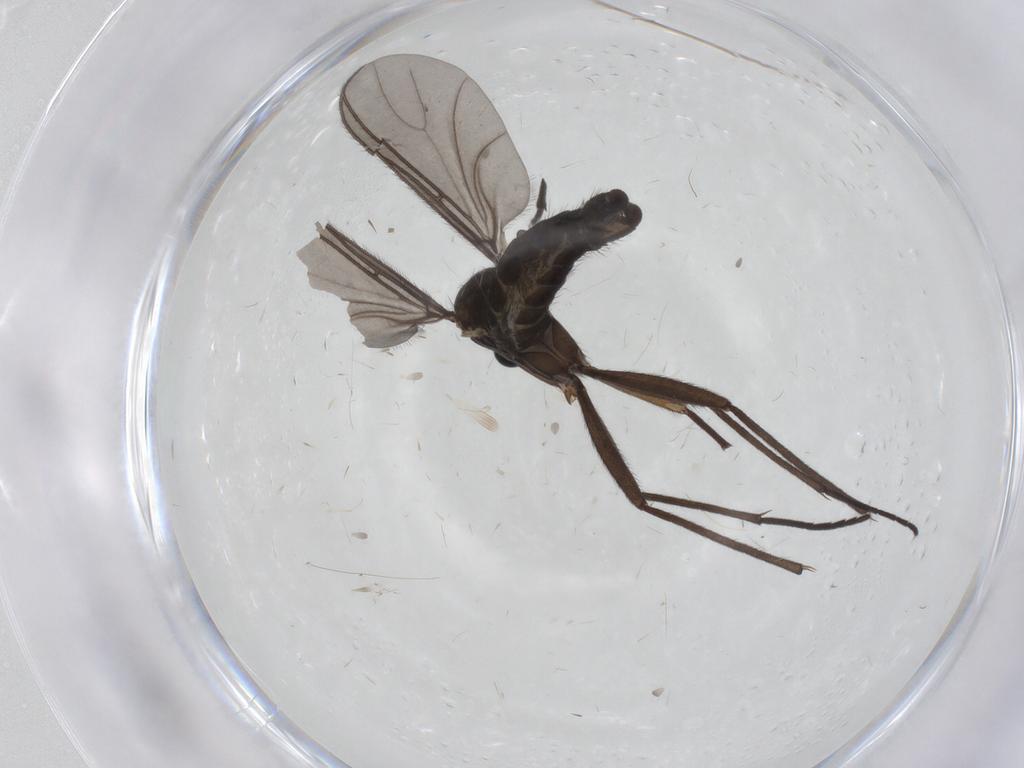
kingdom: Animalia
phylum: Arthropoda
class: Insecta
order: Diptera
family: Sciaridae
